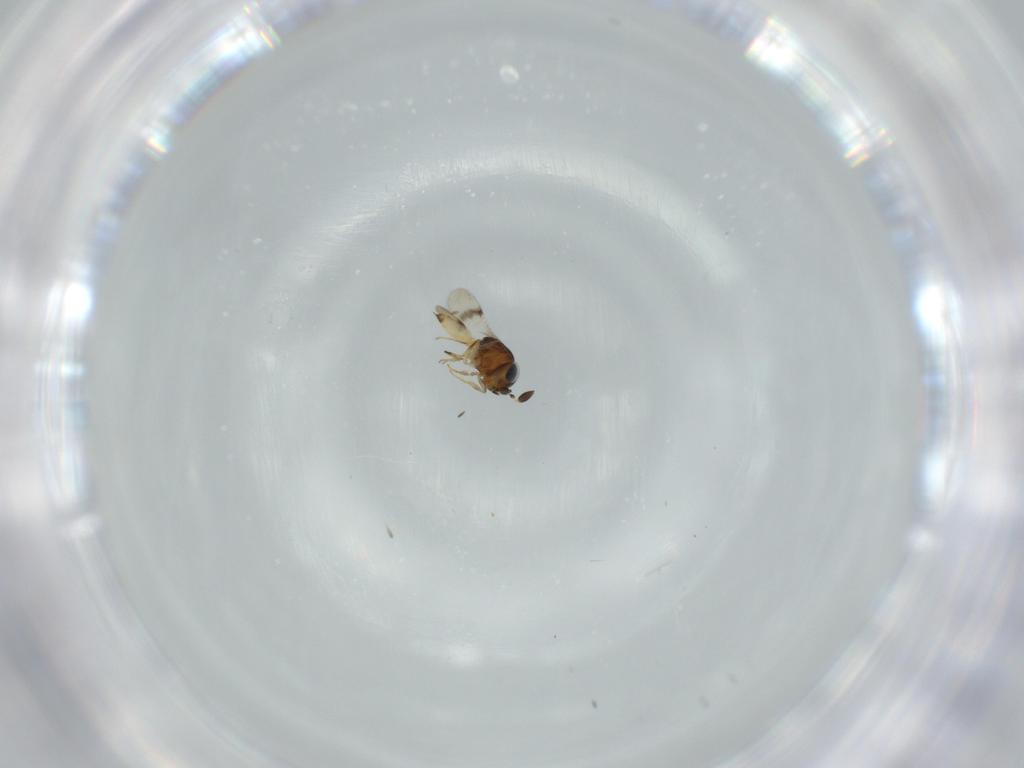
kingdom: Animalia
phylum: Arthropoda
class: Arachnida
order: Araneae
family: Pholcidae
